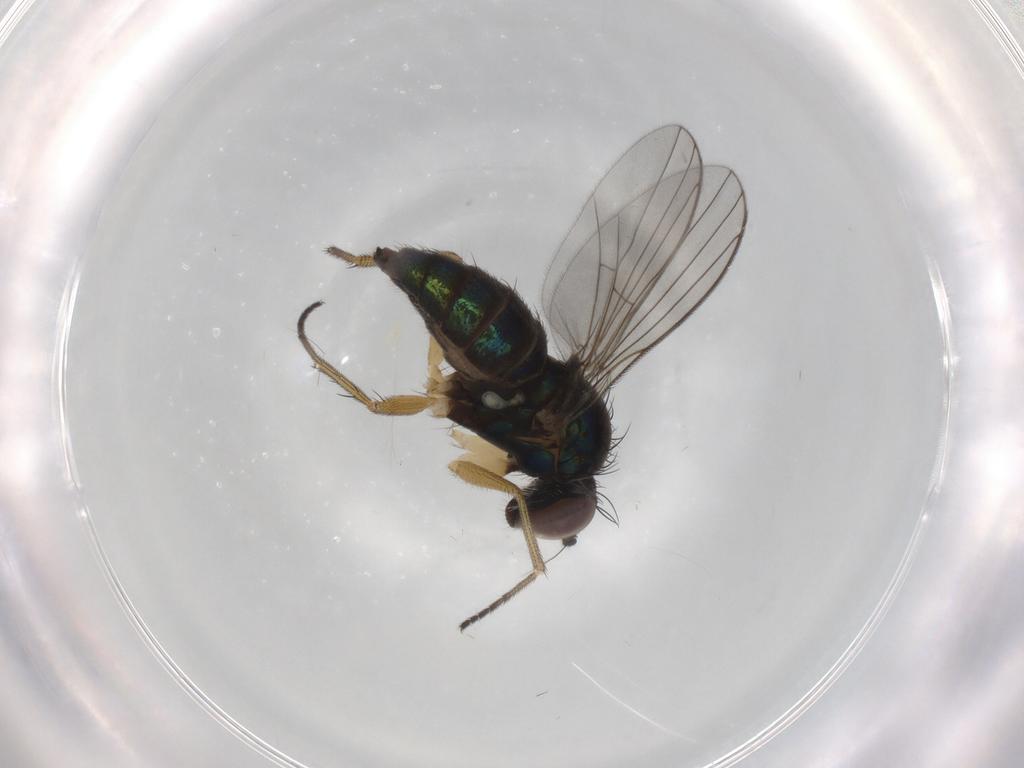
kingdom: Animalia
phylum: Arthropoda
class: Insecta
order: Diptera
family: Dolichopodidae
